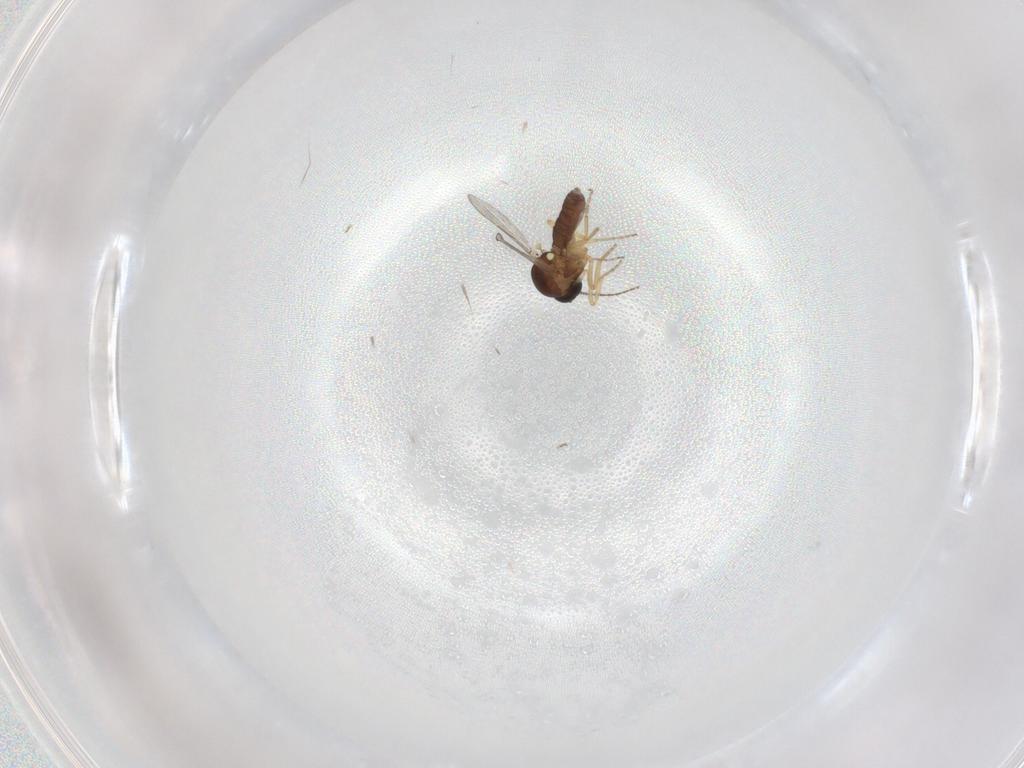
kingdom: Animalia
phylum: Arthropoda
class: Insecta
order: Diptera
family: Ceratopogonidae
